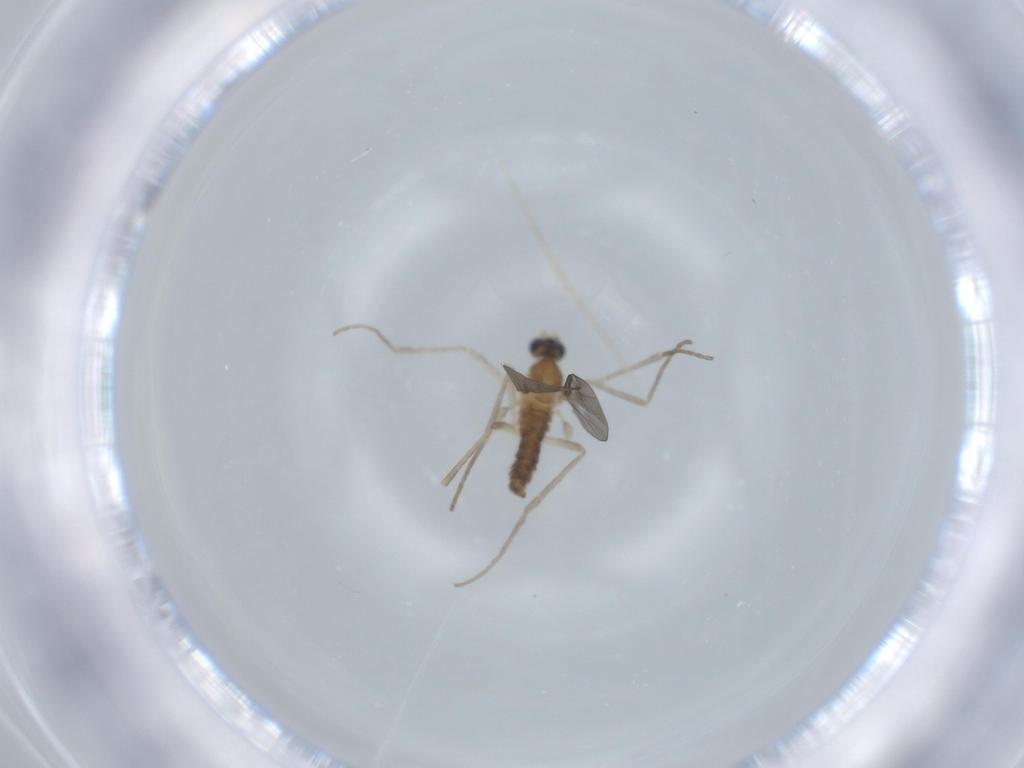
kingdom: Animalia
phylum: Arthropoda
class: Insecta
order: Diptera
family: Cecidomyiidae
